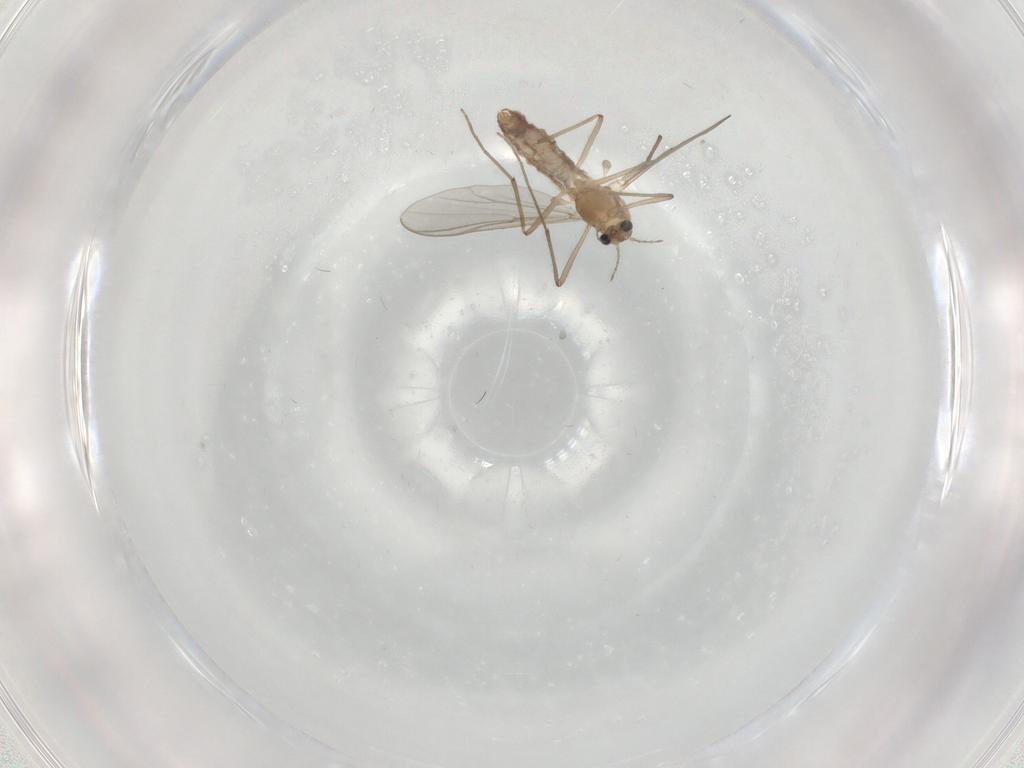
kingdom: Animalia
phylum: Arthropoda
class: Insecta
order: Diptera
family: Chironomidae
